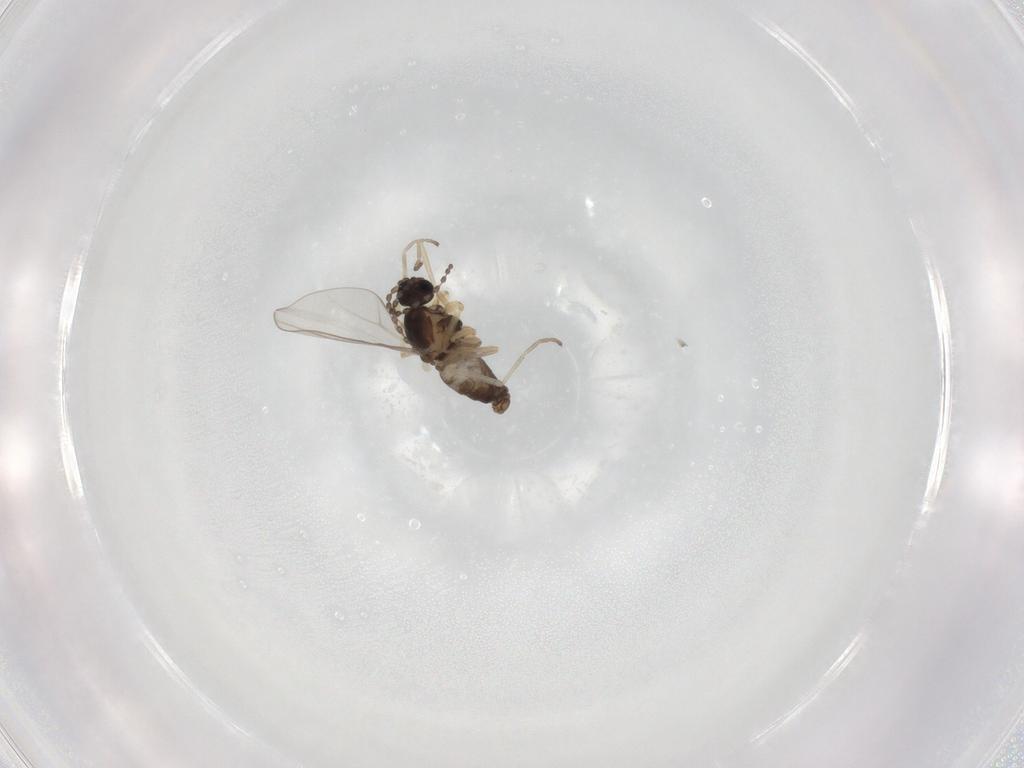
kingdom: Animalia
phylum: Arthropoda
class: Insecta
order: Diptera
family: Cecidomyiidae
